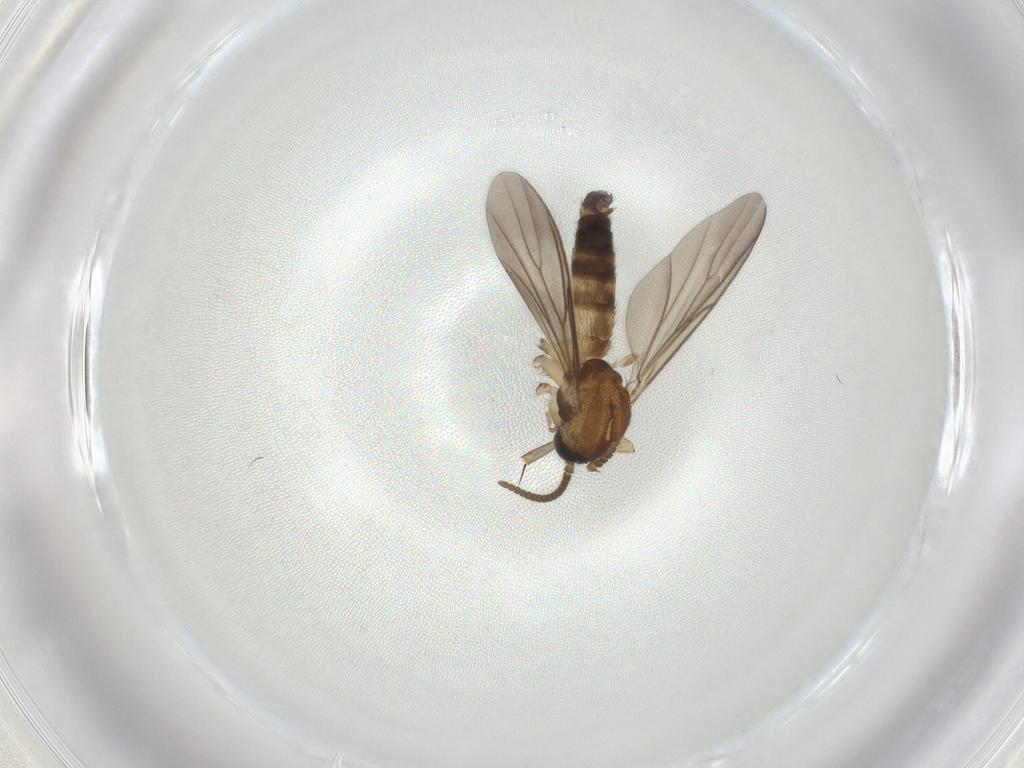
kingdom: Animalia
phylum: Arthropoda
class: Insecta
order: Diptera
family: Mycetophilidae
